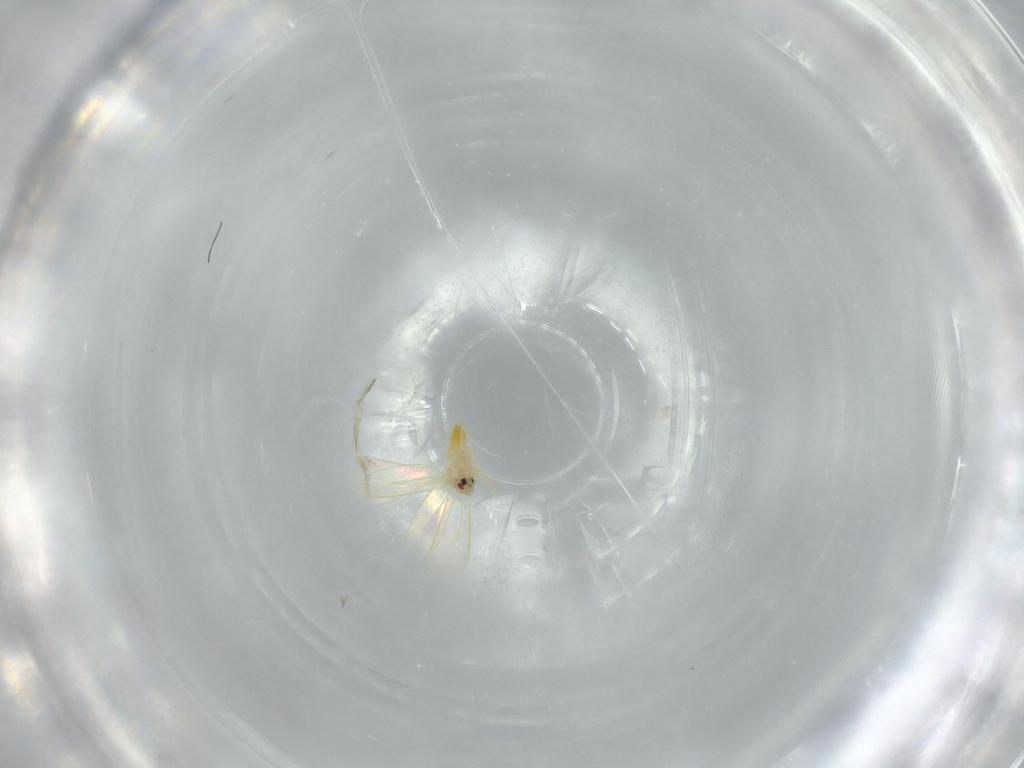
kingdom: Animalia
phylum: Arthropoda
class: Insecta
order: Hemiptera
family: Aleyrodidae
